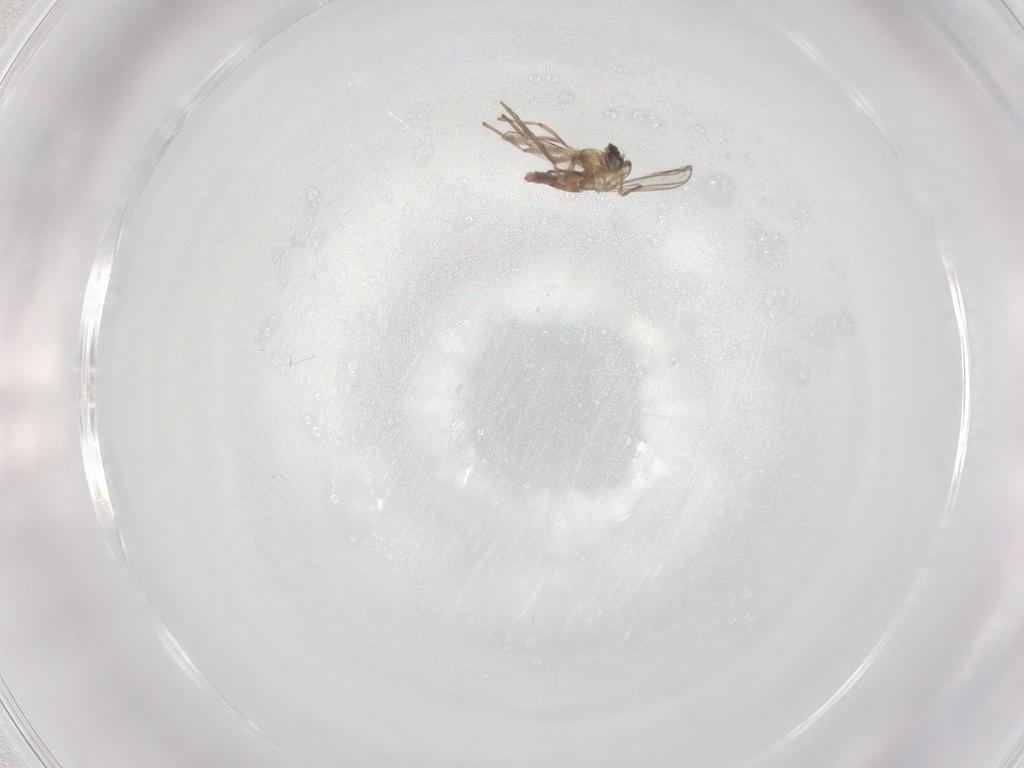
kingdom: Animalia
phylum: Arthropoda
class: Insecta
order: Diptera
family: Chironomidae
